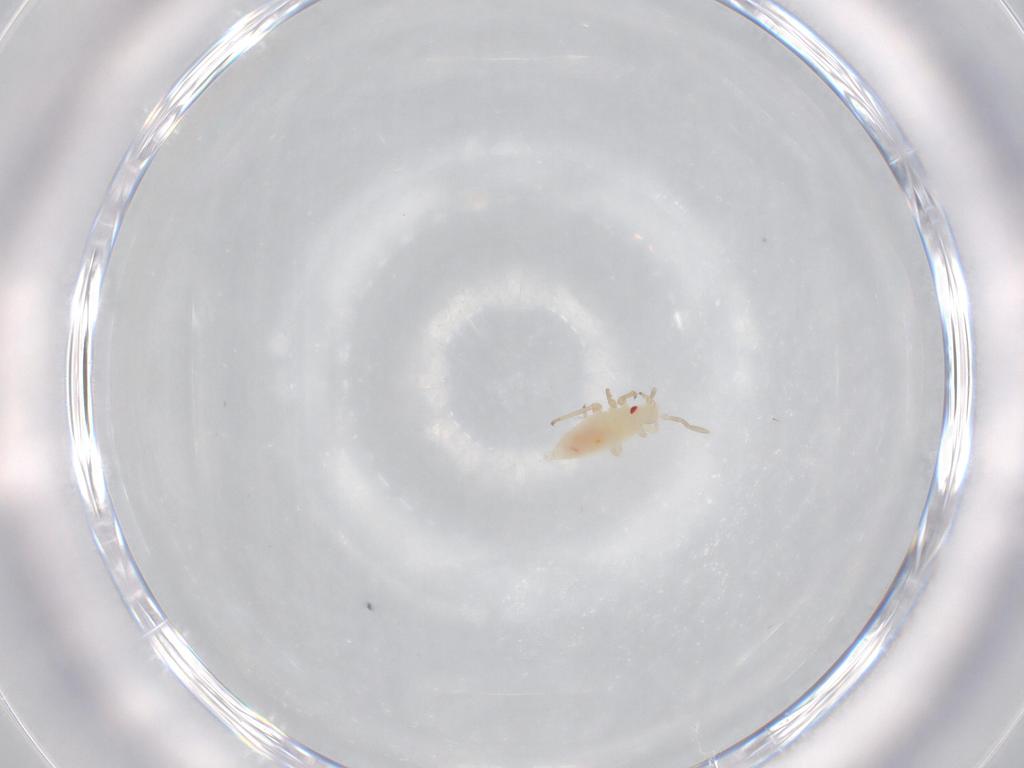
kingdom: Animalia
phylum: Arthropoda
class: Insecta
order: Hemiptera
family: Miridae
